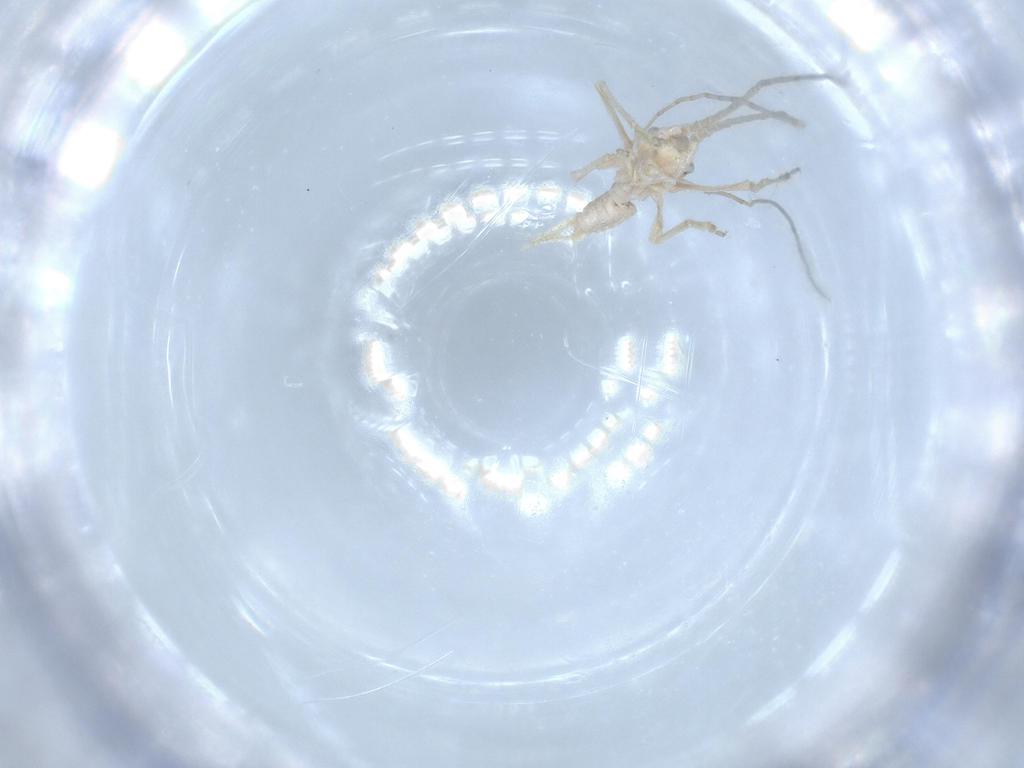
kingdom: Animalia
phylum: Arthropoda
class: Insecta
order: Orthoptera
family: Trigonidiidae
